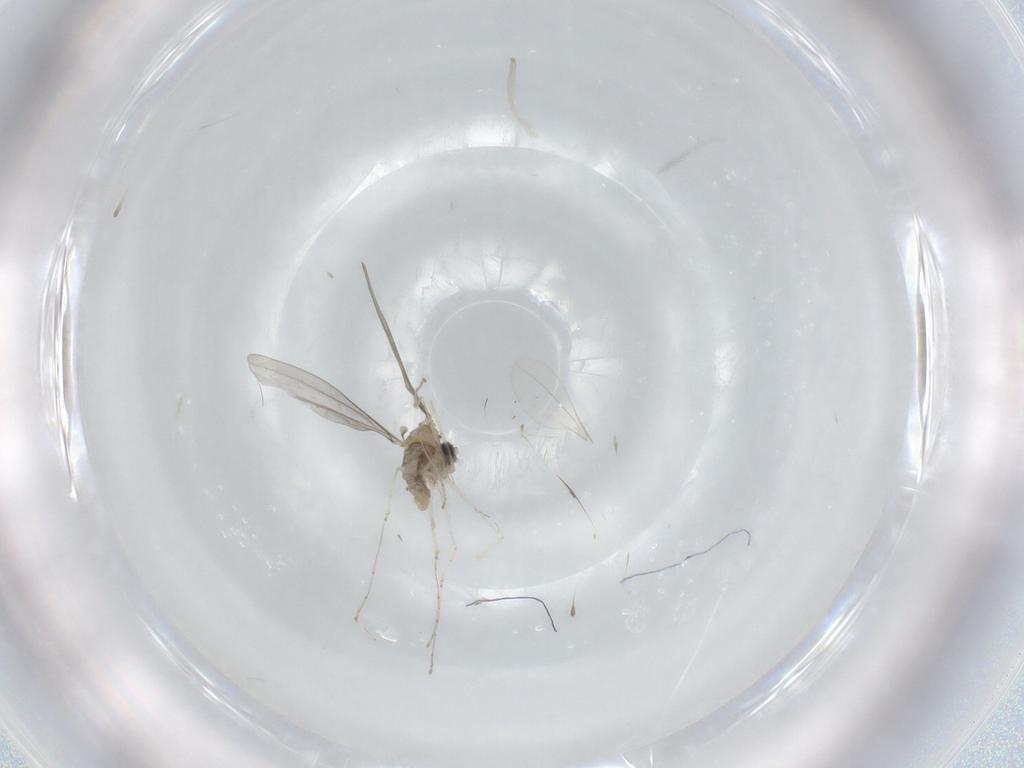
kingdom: Animalia
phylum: Arthropoda
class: Insecta
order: Diptera
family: Cecidomyiidae
